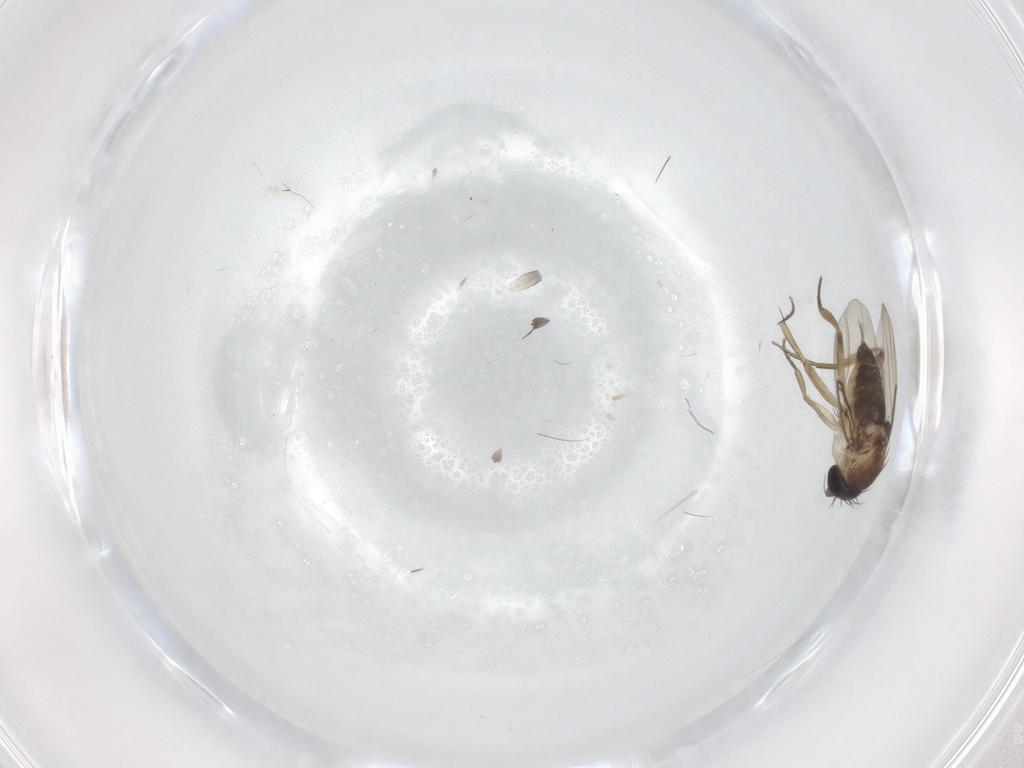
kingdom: Animalia
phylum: Arthropoda
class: Insecta
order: Diptera
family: Phoridae
